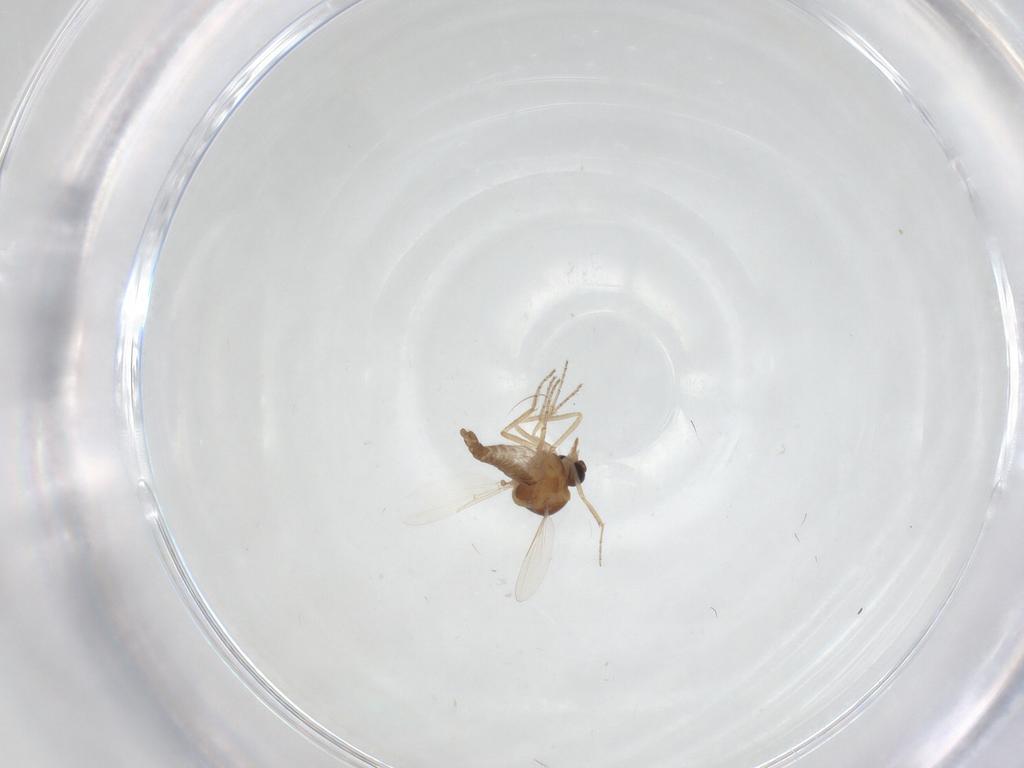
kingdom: Animalia
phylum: Arthropoda
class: Insecta
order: Diptera
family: Ceratopogonidae
